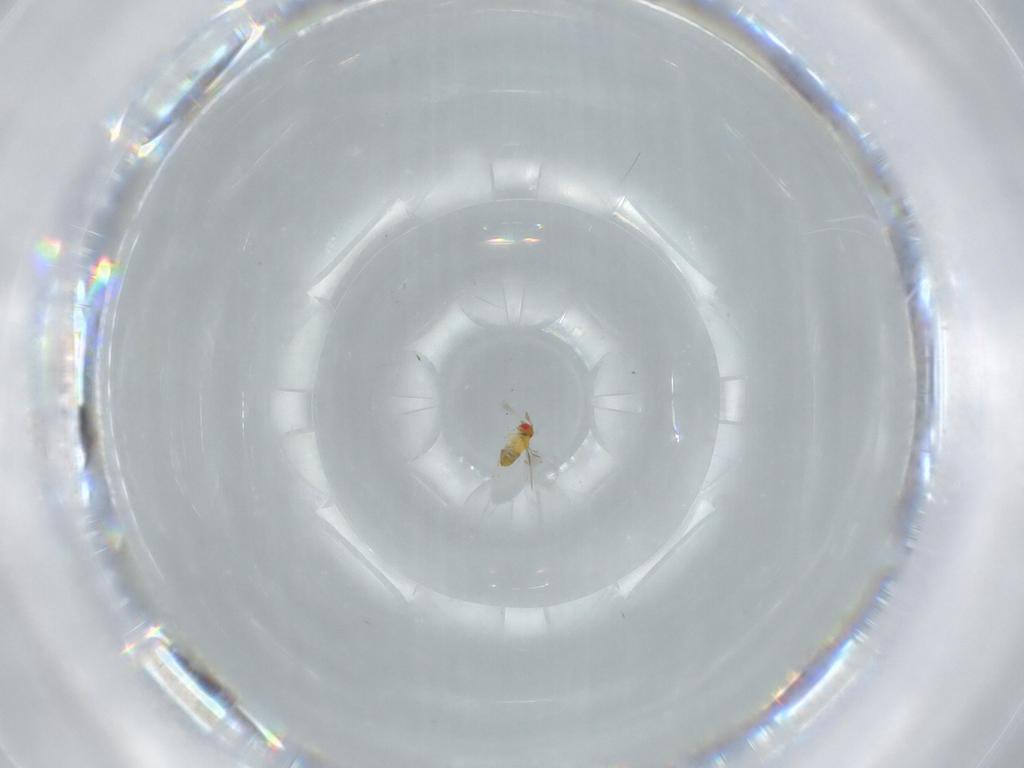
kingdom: Animalia
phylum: Arthropoda
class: Insecta
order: Hymenoptera
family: Trichogrammatidae
